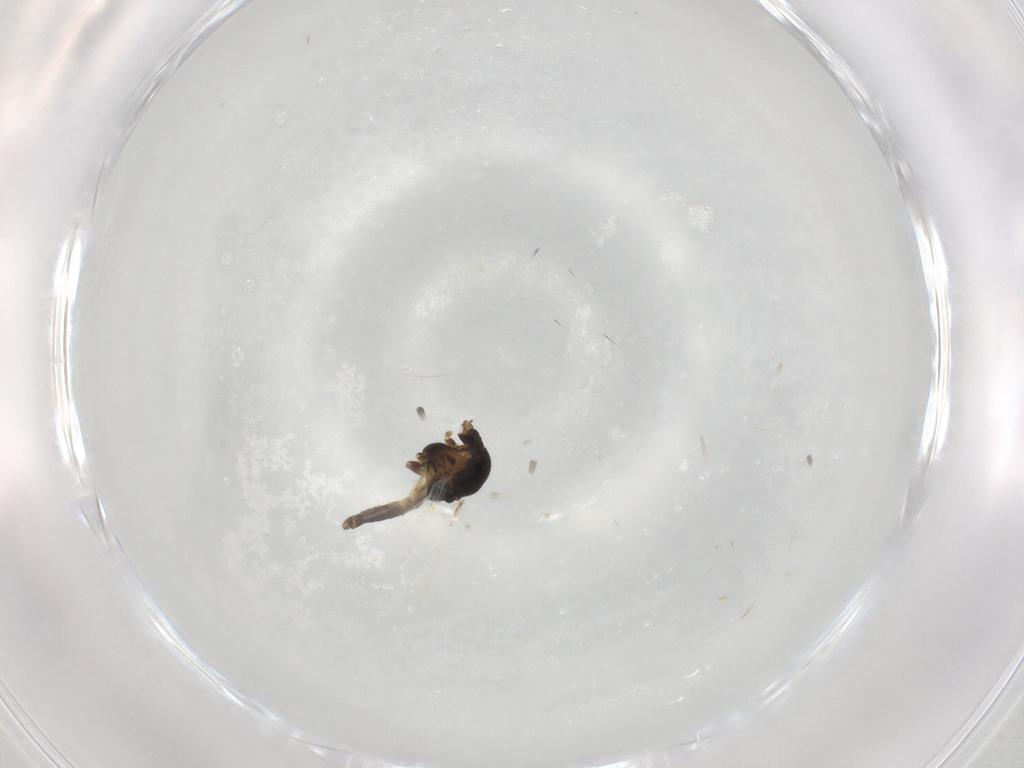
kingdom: Animalia
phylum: Arthropoda
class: Insecta
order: Diptera
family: Chironomidae
